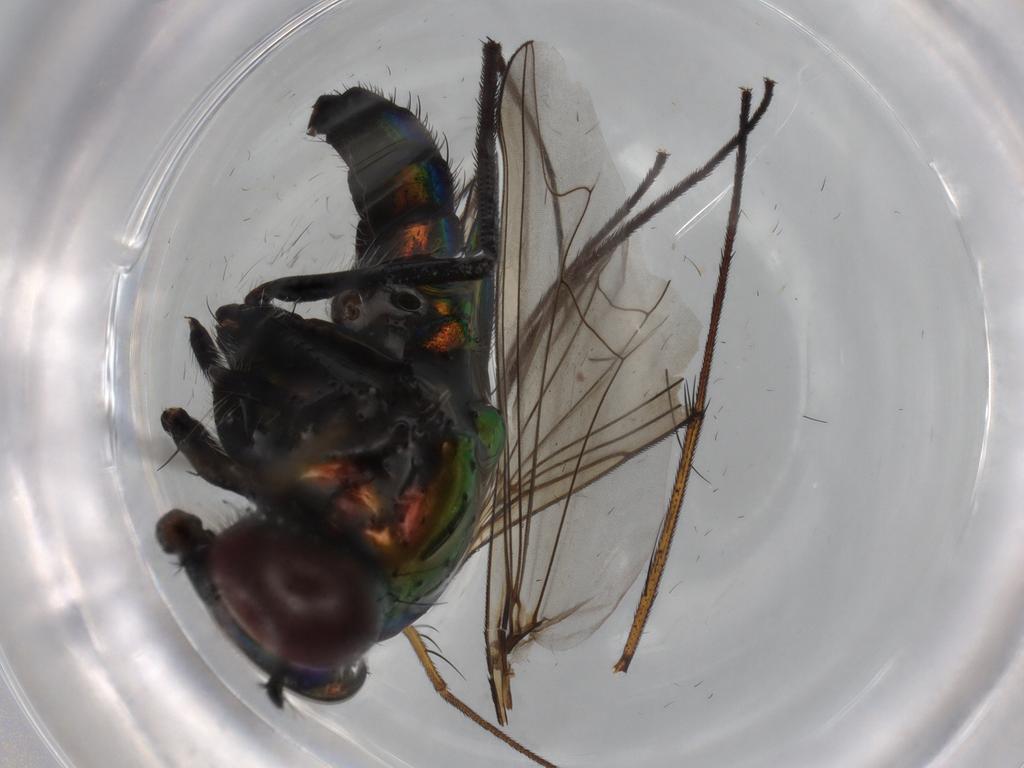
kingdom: Animalia
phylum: Arthropoda
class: Insecta
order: Diptera
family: Dolichopodidae
